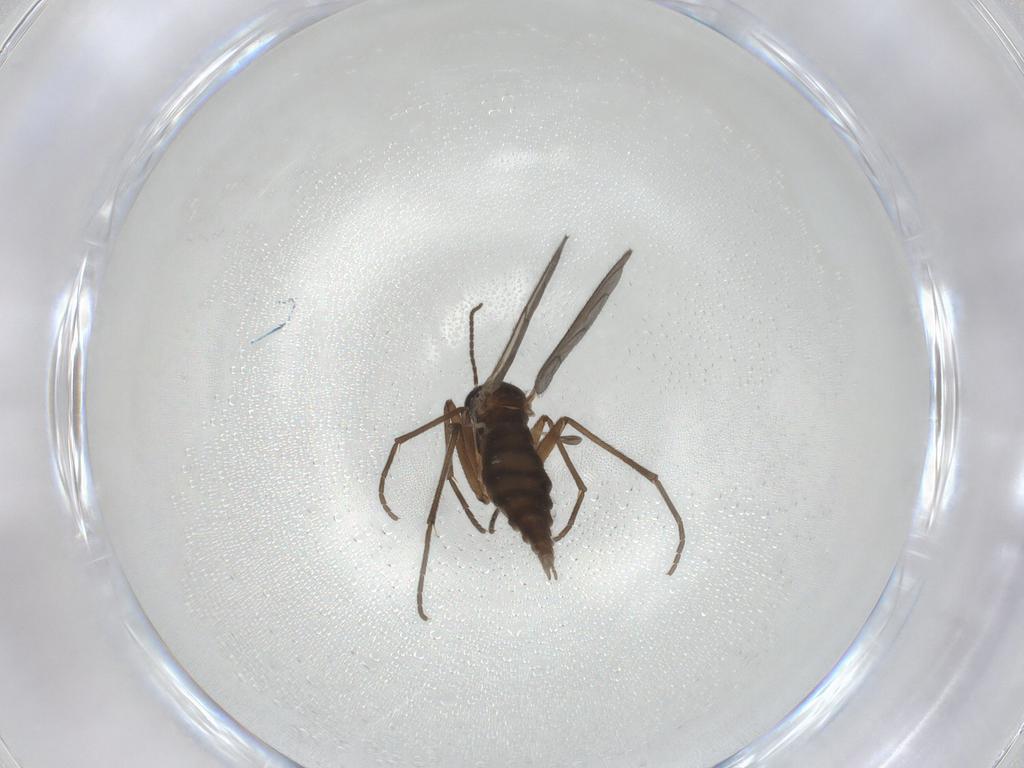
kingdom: Animalia
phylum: Arthropoda
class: Insecta
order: Diptera
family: Sciaridae
